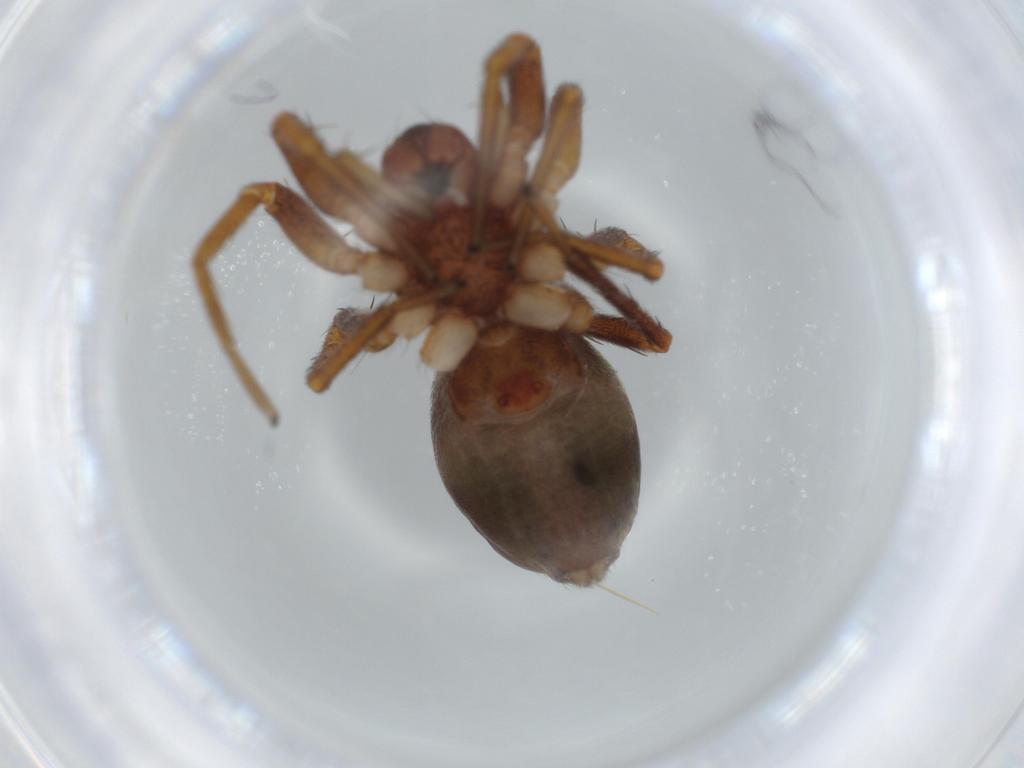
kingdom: Animalia
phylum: Arthropoda
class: Arachnida
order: Araneae
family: Corinnidae
